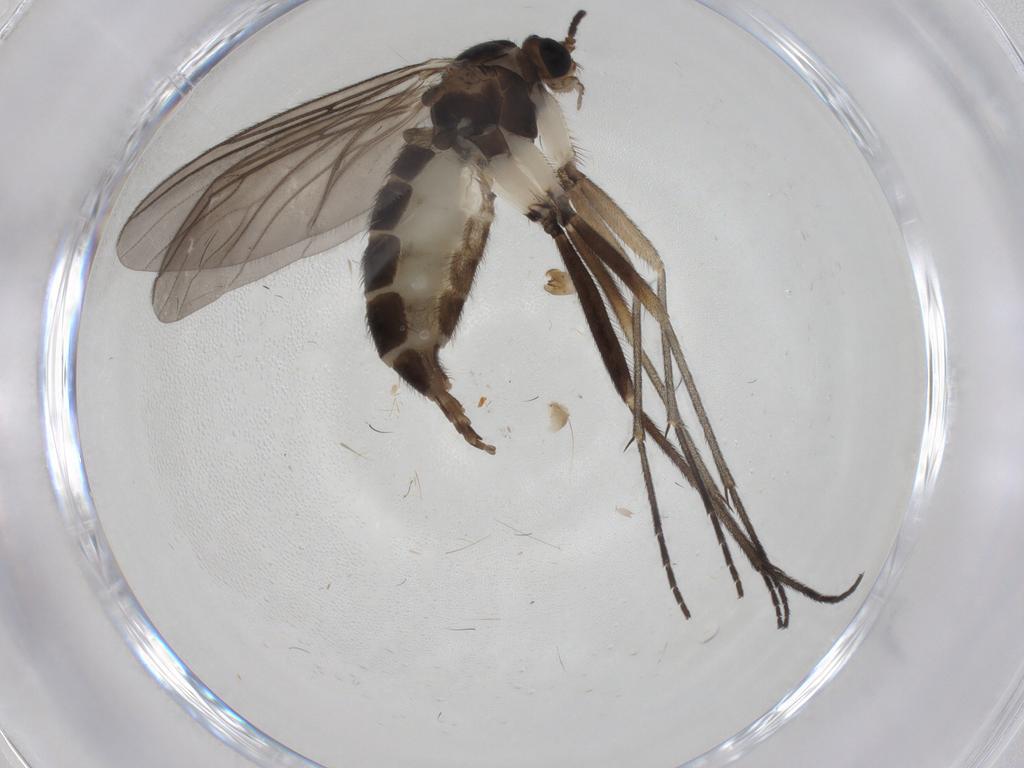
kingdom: Animalia
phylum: Arthropoda
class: Insecta
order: Diptera
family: Sciaridae
